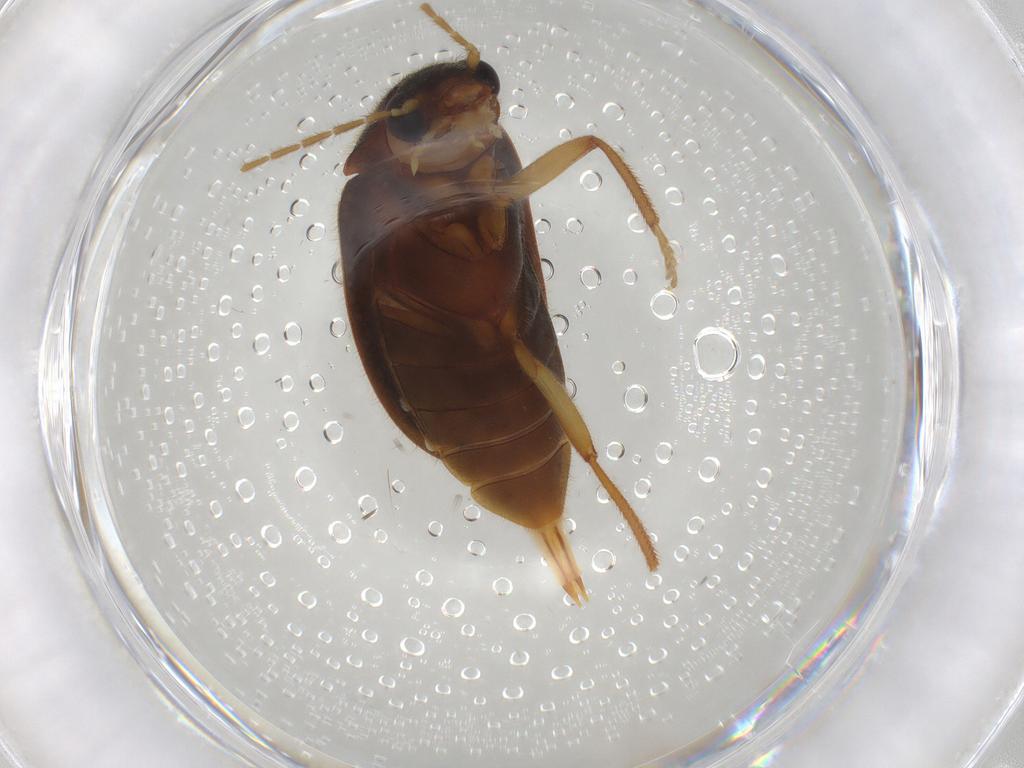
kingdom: Animalia
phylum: Arthropoda
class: Insecta
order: Coleoptera
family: Ptilodactylidae
